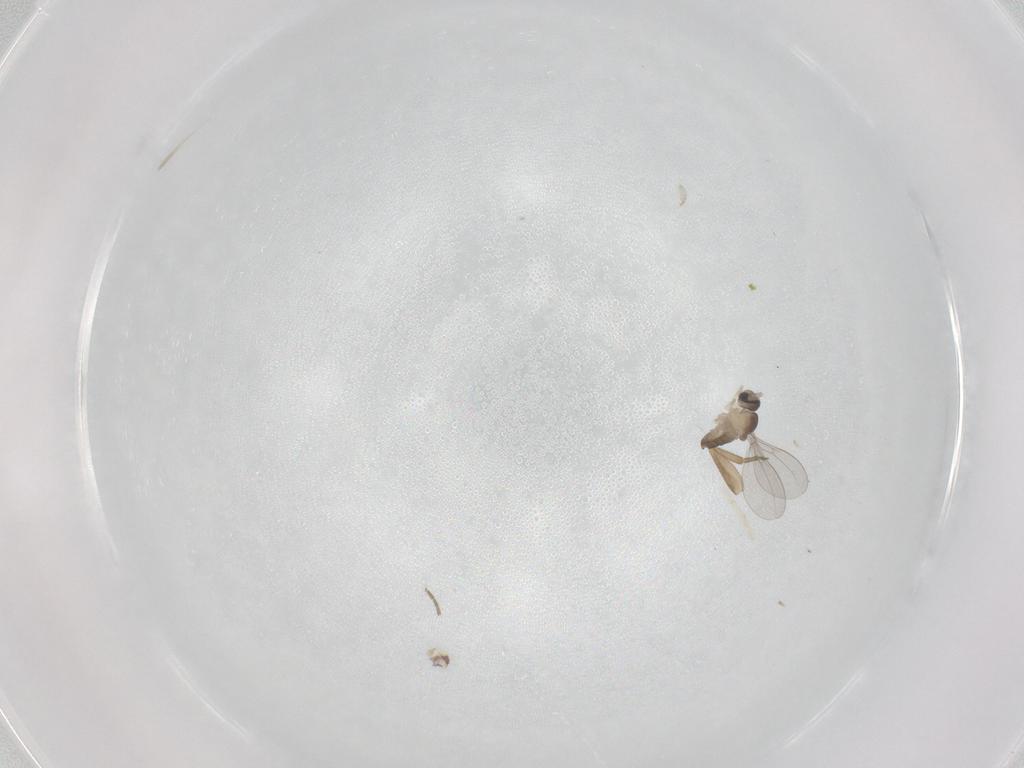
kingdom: Animalia
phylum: Arthropoda
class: Insecta
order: Diptera
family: Cecidomyiidae
